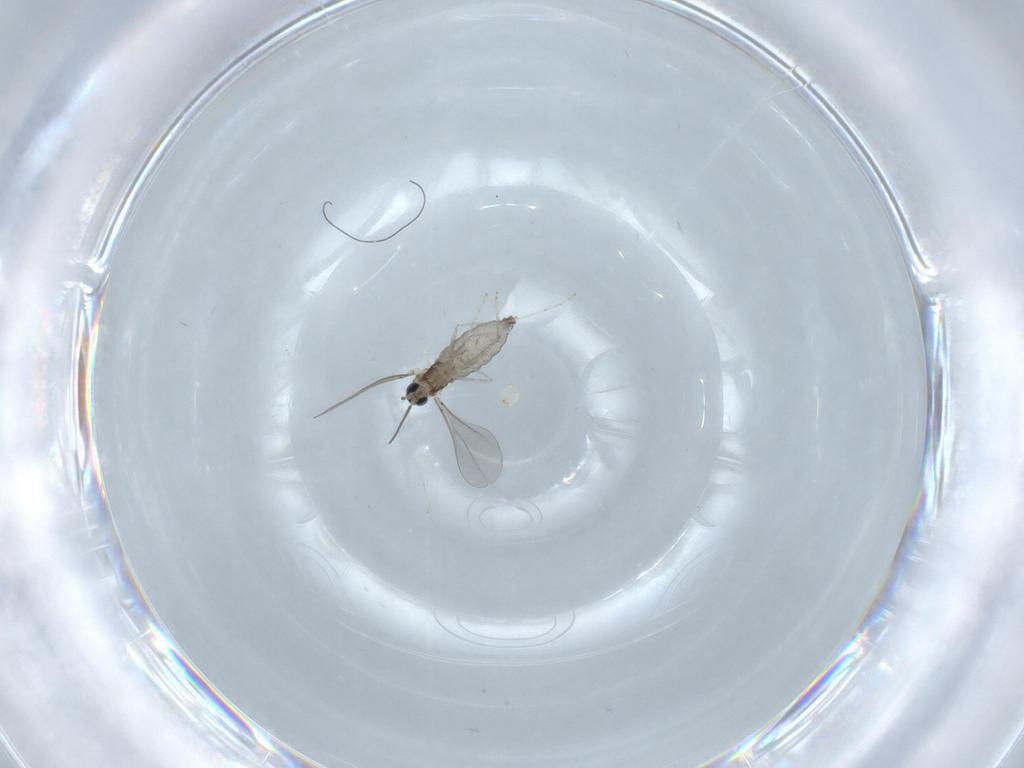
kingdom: Animalia
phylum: Arthropoda
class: Insecta
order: Diptera
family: Cecidomyiidae
